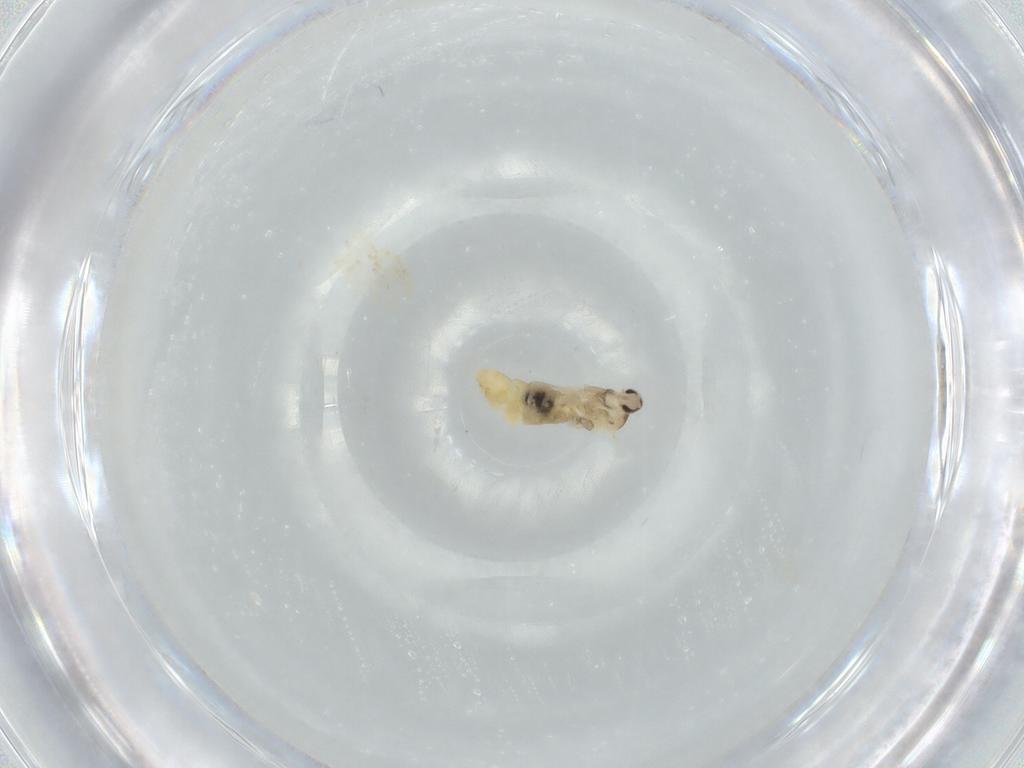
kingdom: Animalia
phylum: Arthropoda
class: Insecta
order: Diptera
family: Cecidomyiidae
